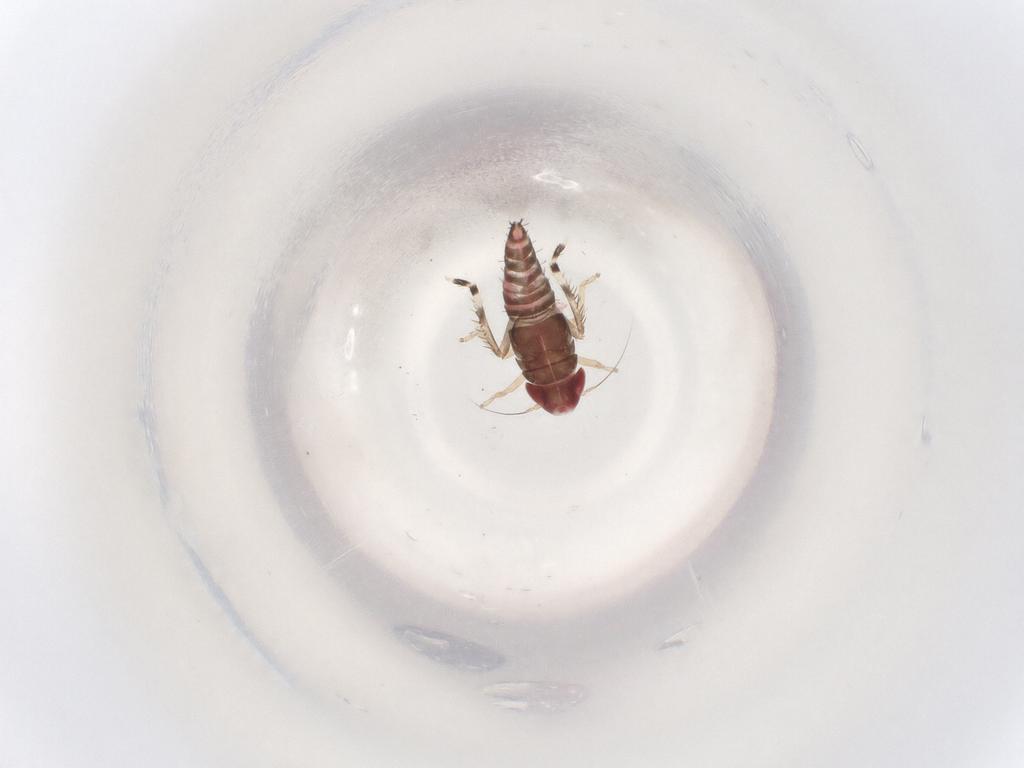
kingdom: Animalia
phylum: Arthropoda
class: Insecta
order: Hemiptera
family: Cicadellidae
